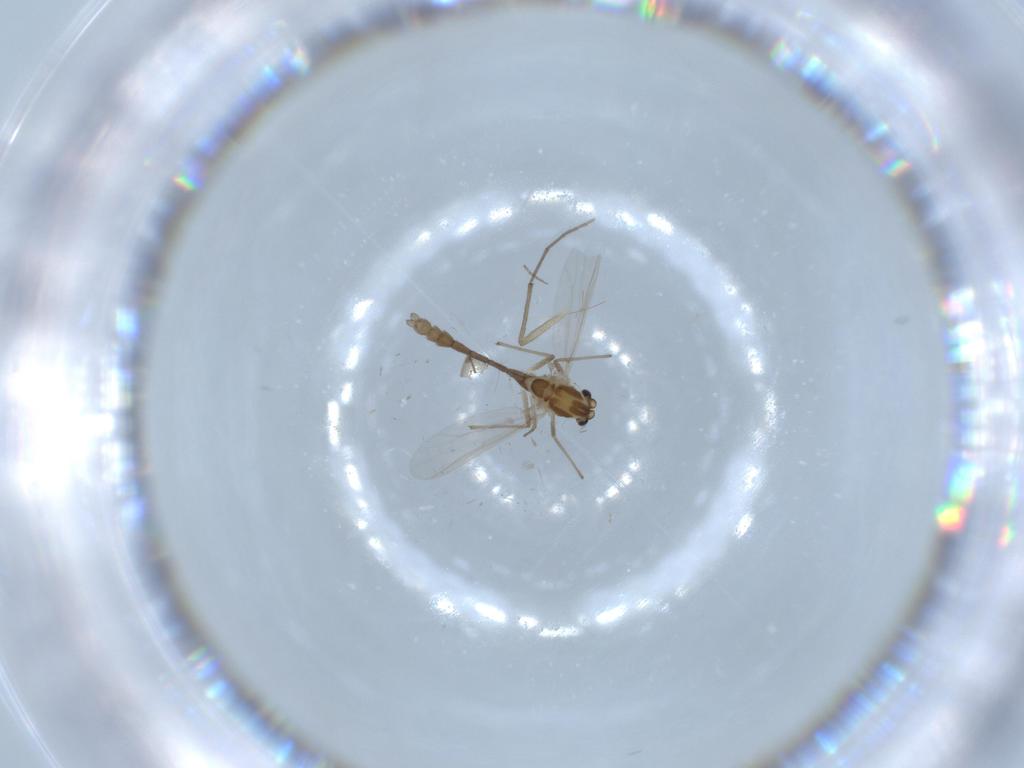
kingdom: Animalia
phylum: Arthropoda
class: Insecta
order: Diptera
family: Chironomidae
